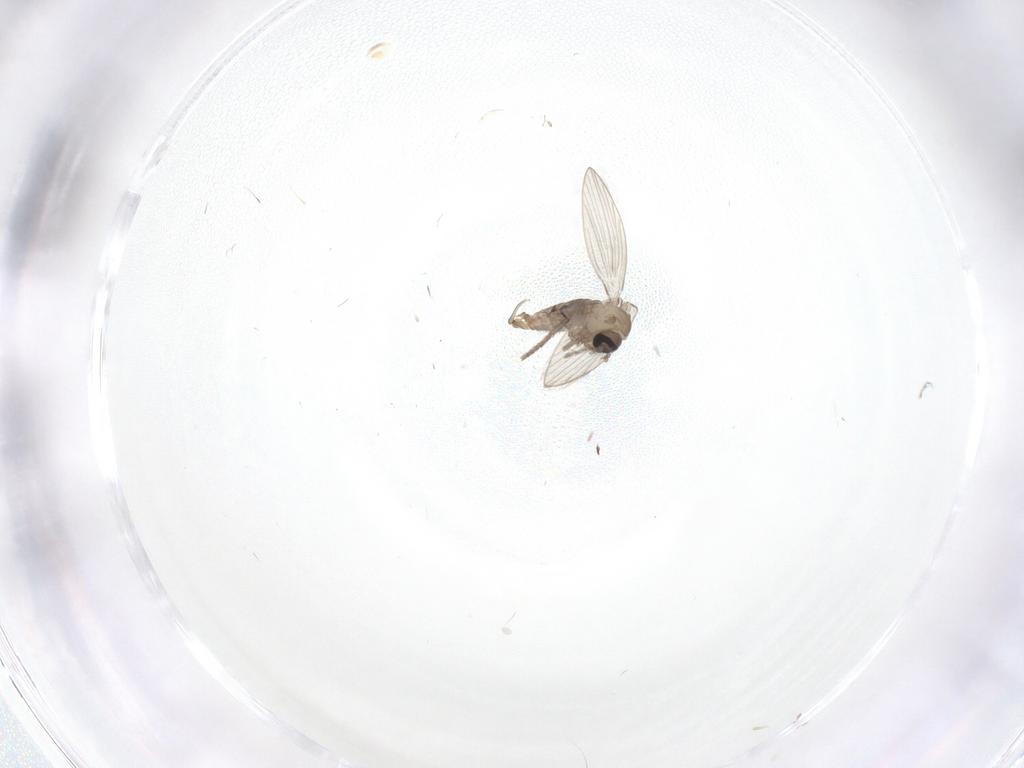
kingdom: Animalia
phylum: Arthropoda
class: Insecta
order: Diptera
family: Psychodidae
